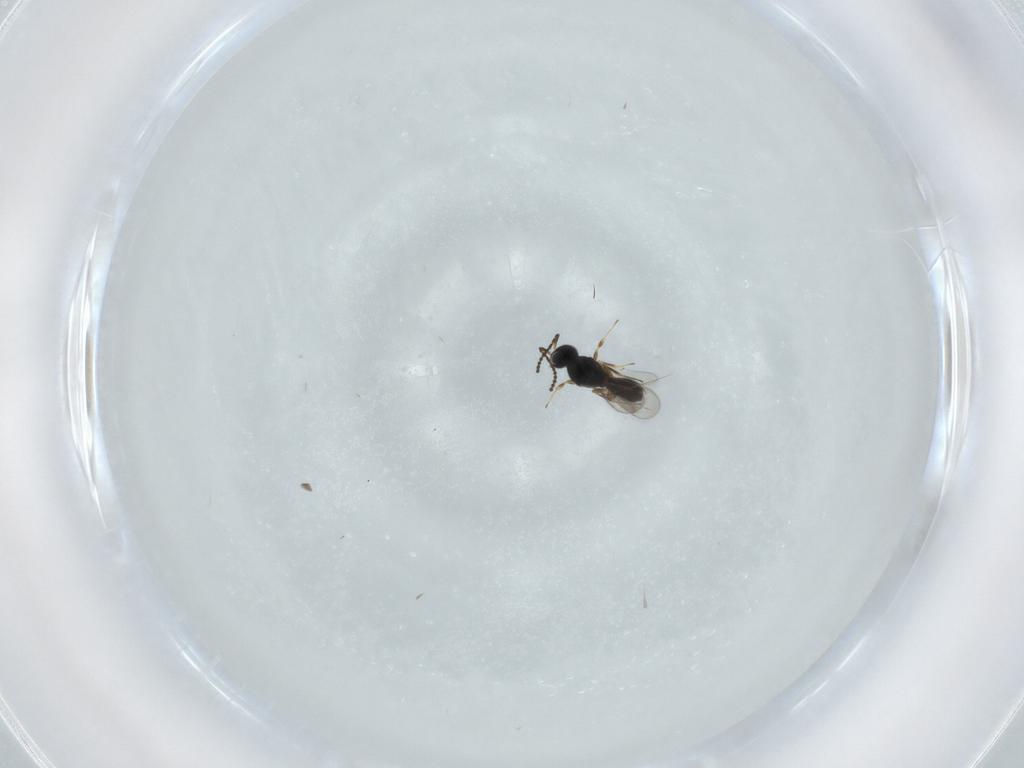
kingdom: Animalia
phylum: Arthropoda
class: Insecta
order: Hymenoptera
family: Scelionidae
